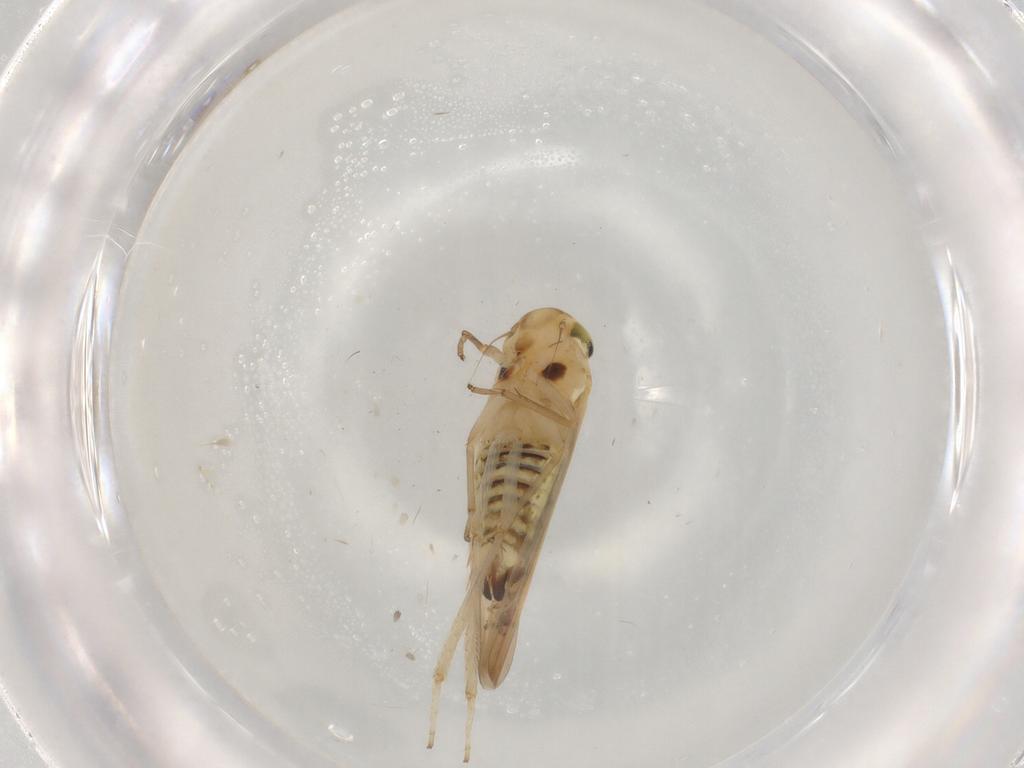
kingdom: Animalia
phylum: Arthropoda
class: Insecta
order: Hemiptera
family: Cicadellidae
